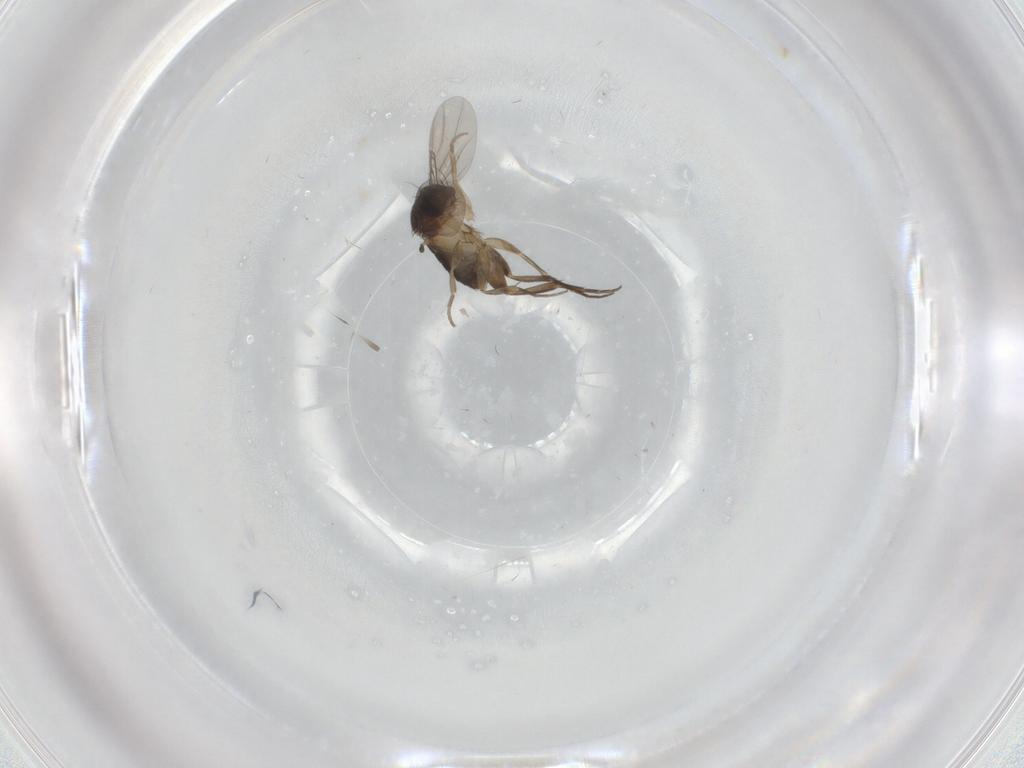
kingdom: Animalia
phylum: Arthropoda
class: Insecta
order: Diptera
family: Phoridae
